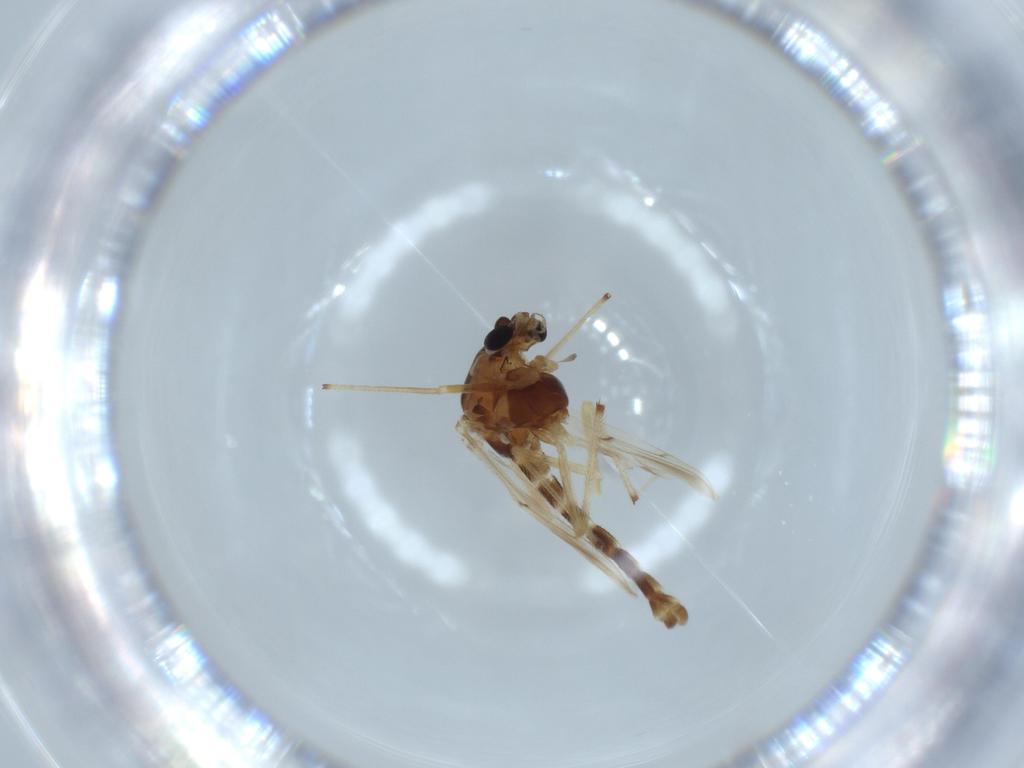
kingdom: Animalia
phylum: Arthropoda
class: Insecta
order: Diptera
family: Chironomidae
